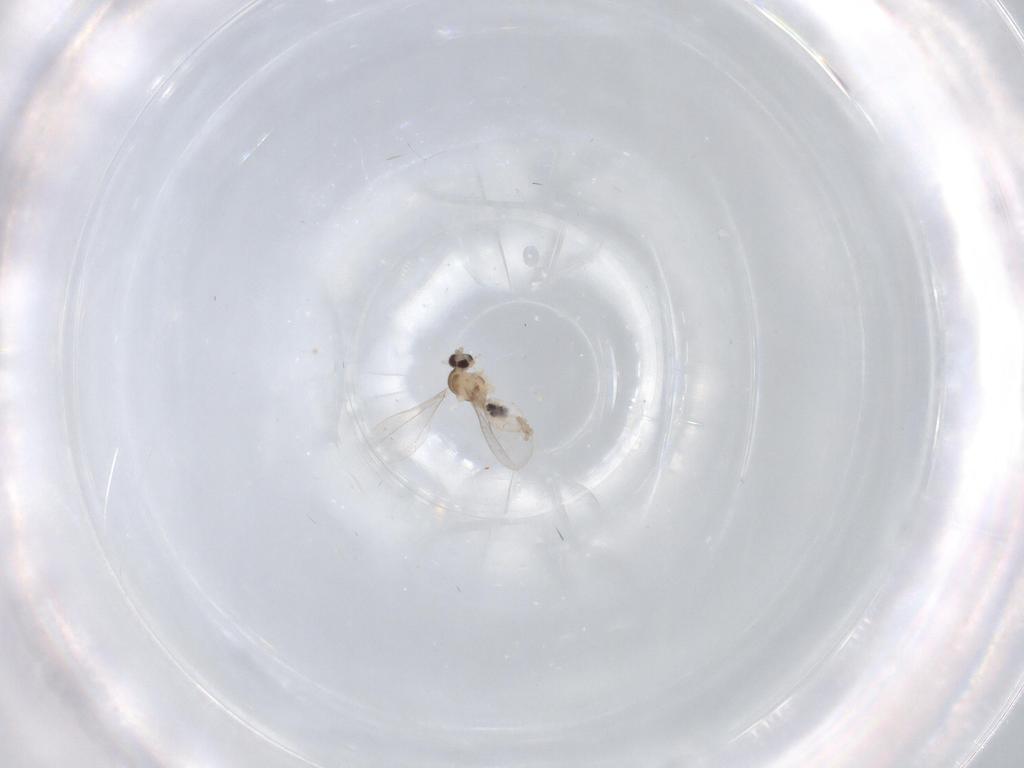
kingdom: Animalia
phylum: Arthropoda
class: Insecta
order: Diptera
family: Cecidomyiidae
